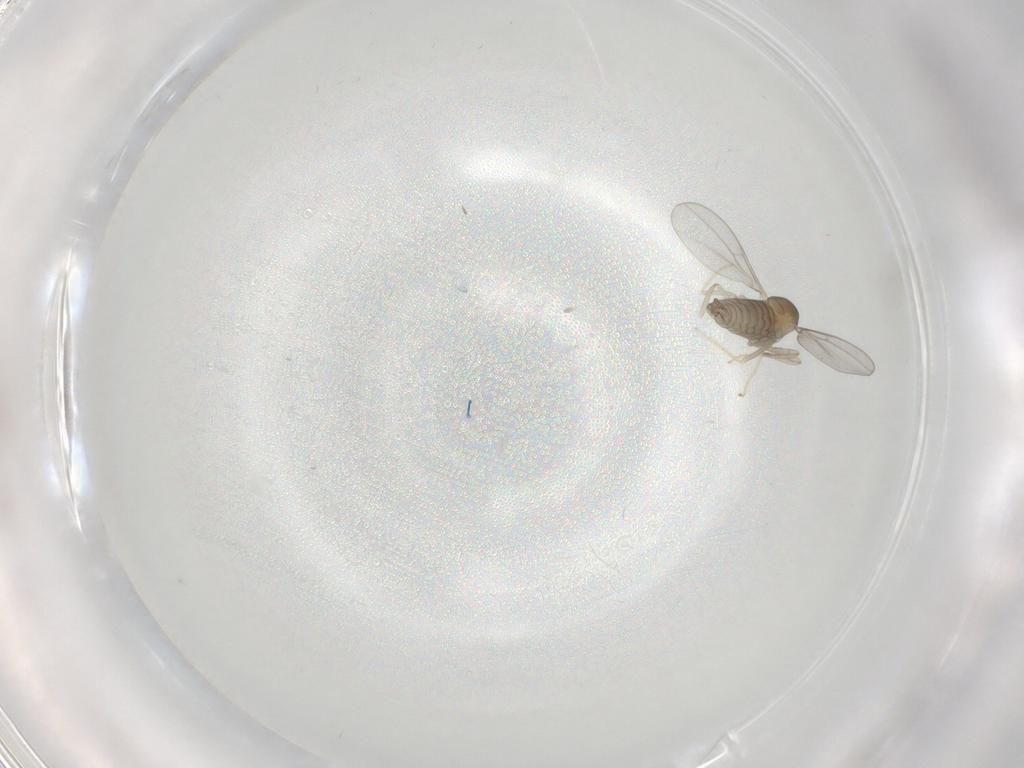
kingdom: Animalia
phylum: Arthropoda
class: Insecta
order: Diptera
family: Phoridae
